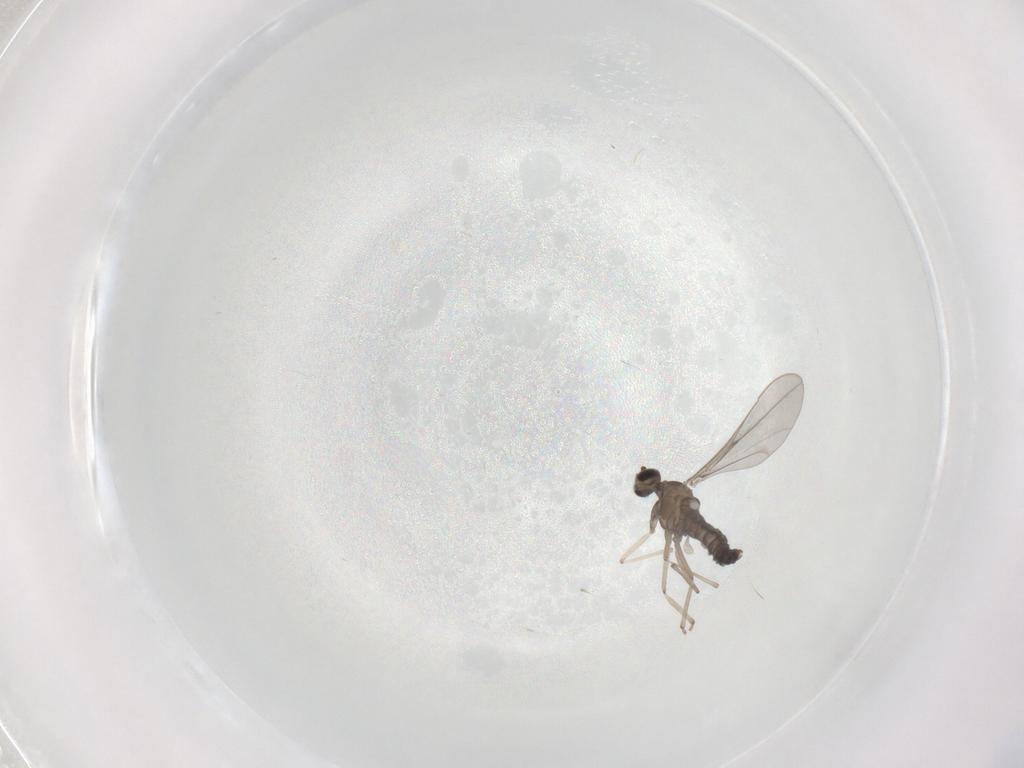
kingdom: Animalia
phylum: Arthropoda
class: Insecta
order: Diptera
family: Cecidomyiidae
